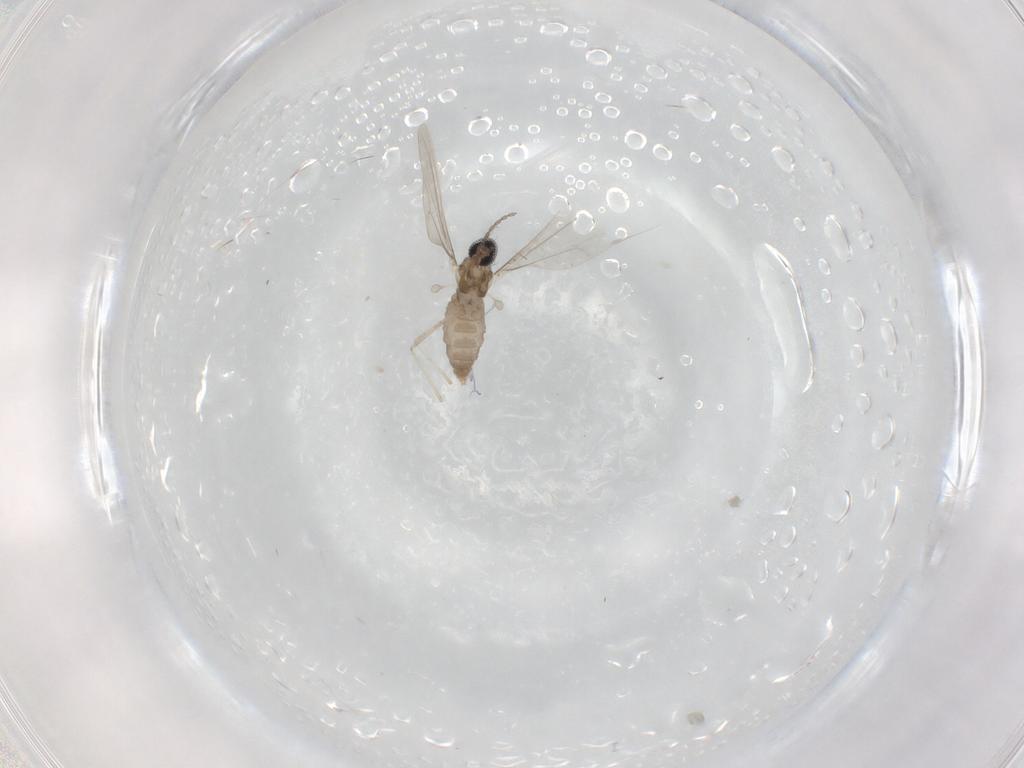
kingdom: Animalia
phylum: Arthropoda
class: Insecta
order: Diptera
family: Cecidomyiidae
